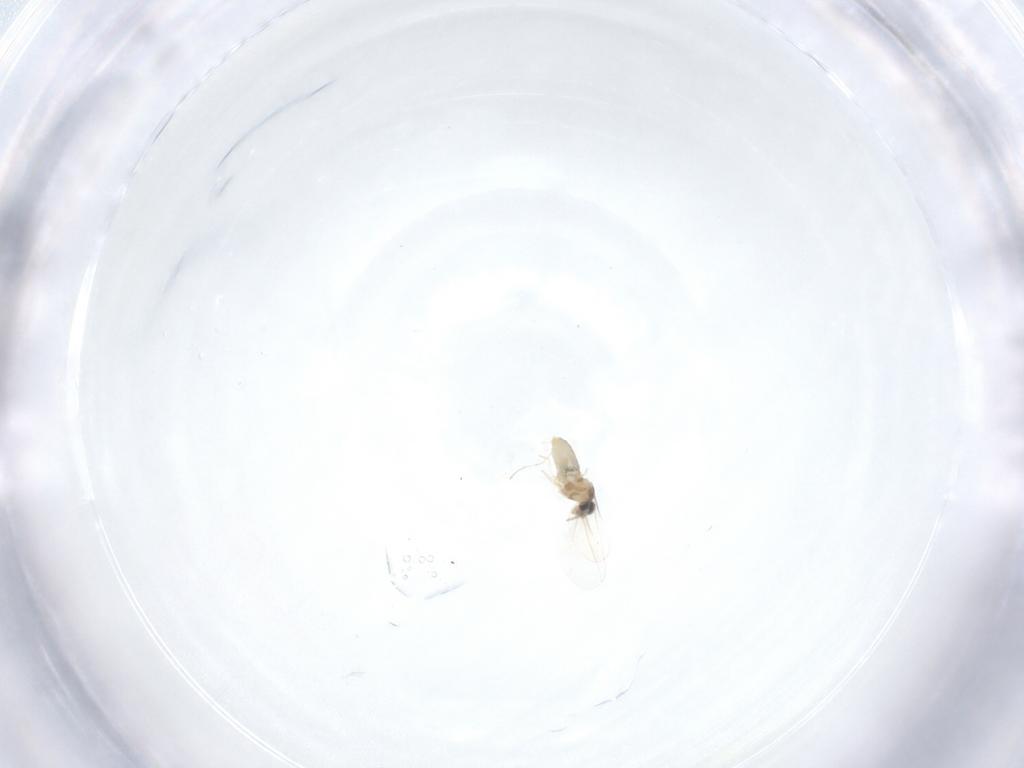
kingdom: Animalia
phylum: Arthropoda
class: Insecta
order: Diptera
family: Cecidomyiidae
